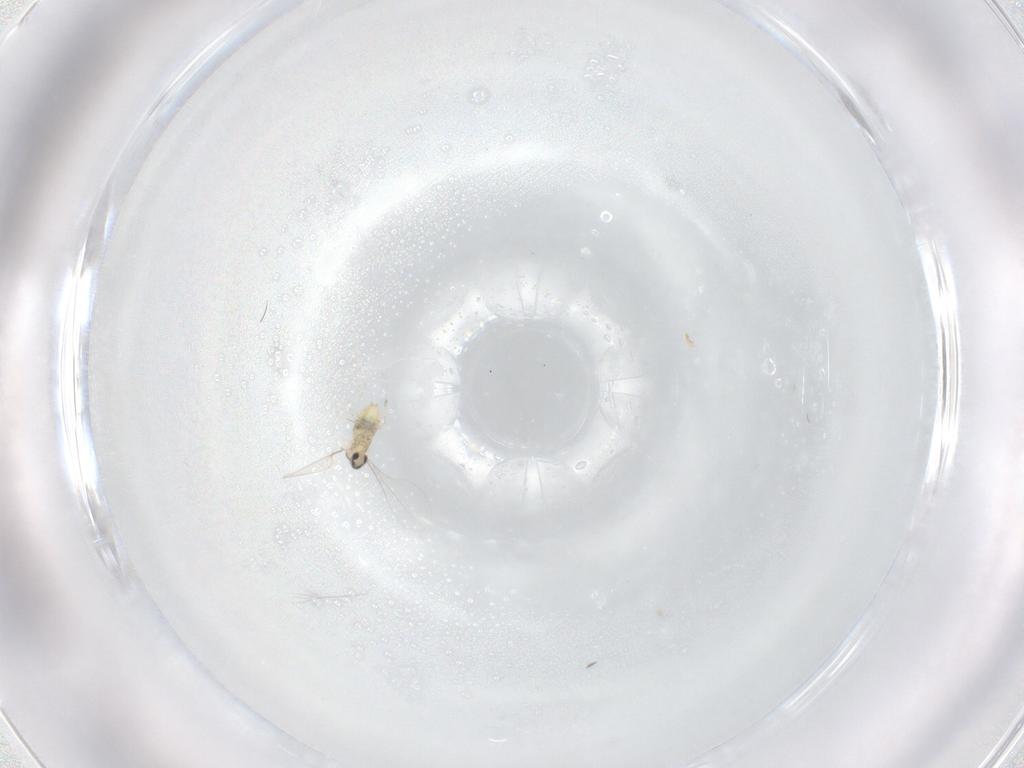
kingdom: Animalia
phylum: Arthropoda
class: Insecta
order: Diptera
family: Cecidomyiidae
